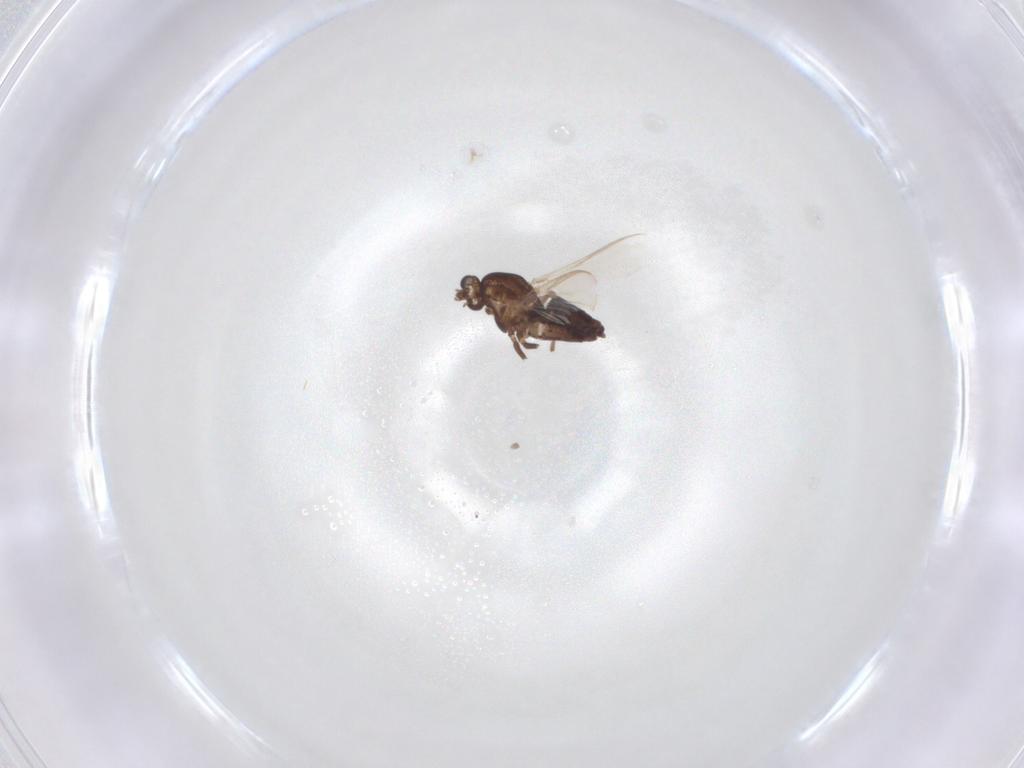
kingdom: Animalia
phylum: Arthropoda
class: Insecta
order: Diptera
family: Chironomidae
